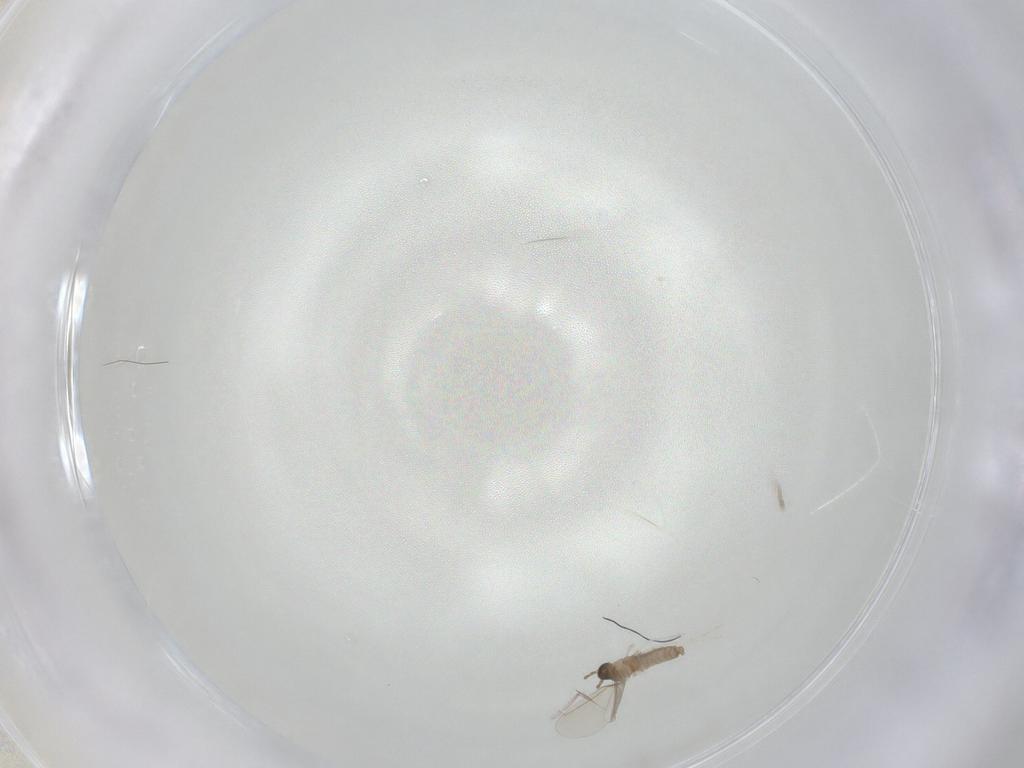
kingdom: Animalia
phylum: Arthropoda
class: Insecta
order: Diptera
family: Cecidomyiidae
